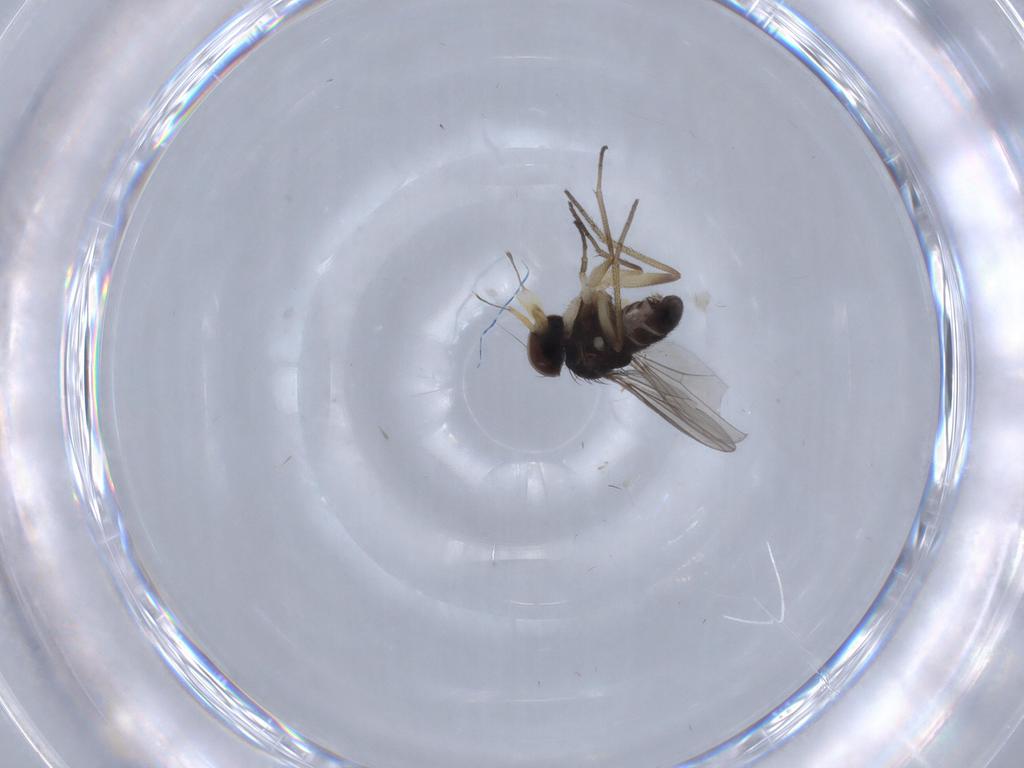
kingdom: Animalia
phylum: Arthropoda
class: Insecta
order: Diptera
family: Dolichopodidae
